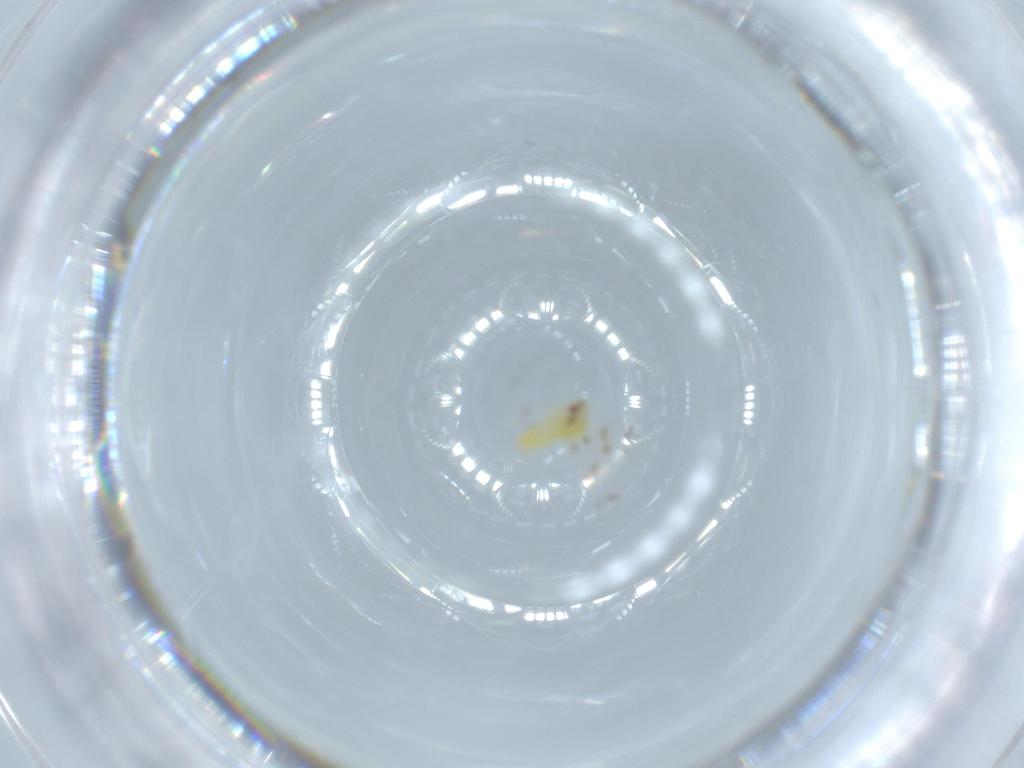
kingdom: Animalia
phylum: Arthropoda
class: Insecta
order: Hemiptera
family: Aleyrodidae
